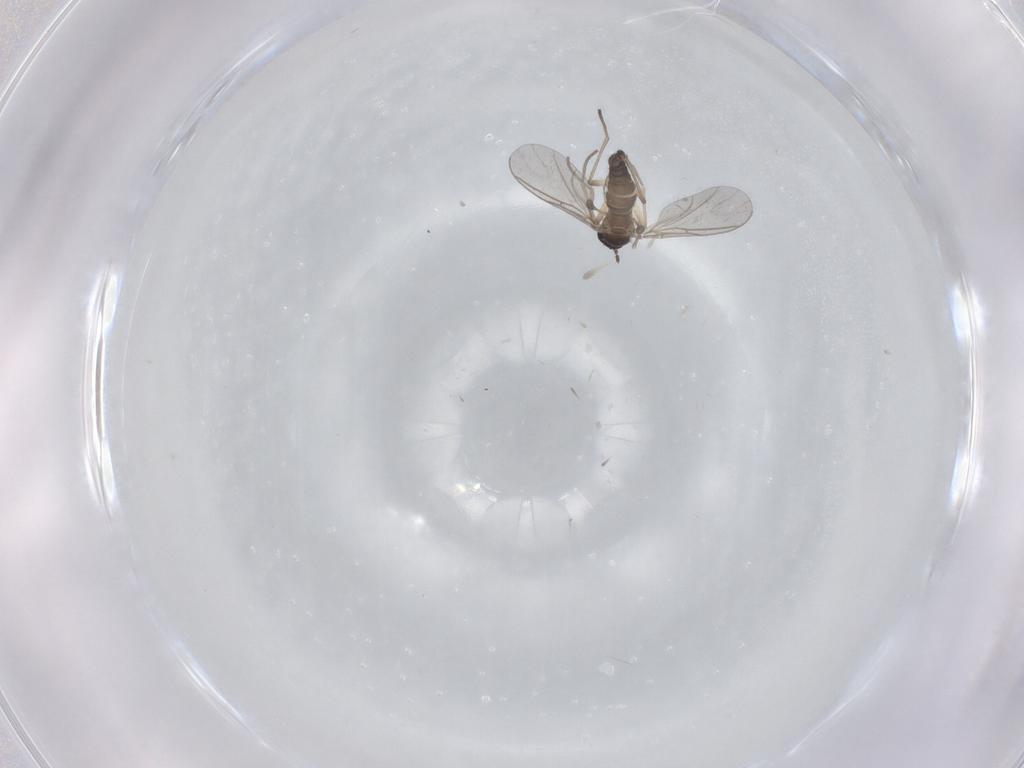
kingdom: Animalia
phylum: Arthropoda
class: Insecta
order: Diptera
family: Sciaridae
